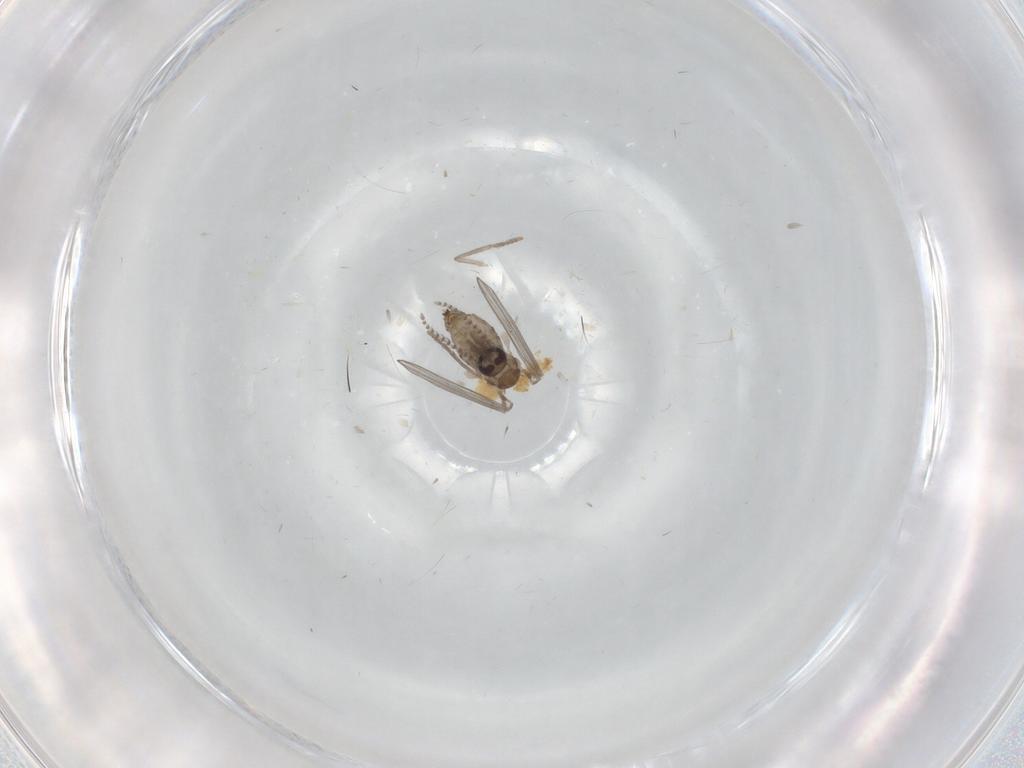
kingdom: Animalia
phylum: Arthropoda
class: Insecta
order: Diptera
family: Psychodidae
